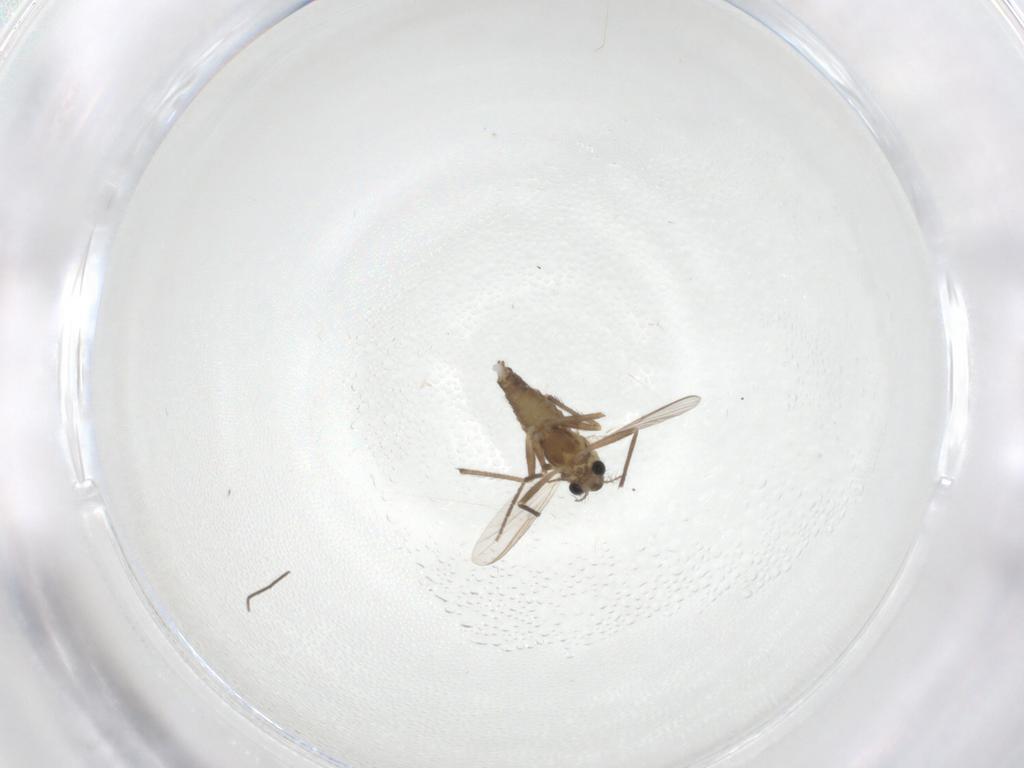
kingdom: Animalia
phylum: Arthropoda
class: Insecta
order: Diptera
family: Chironomidae
